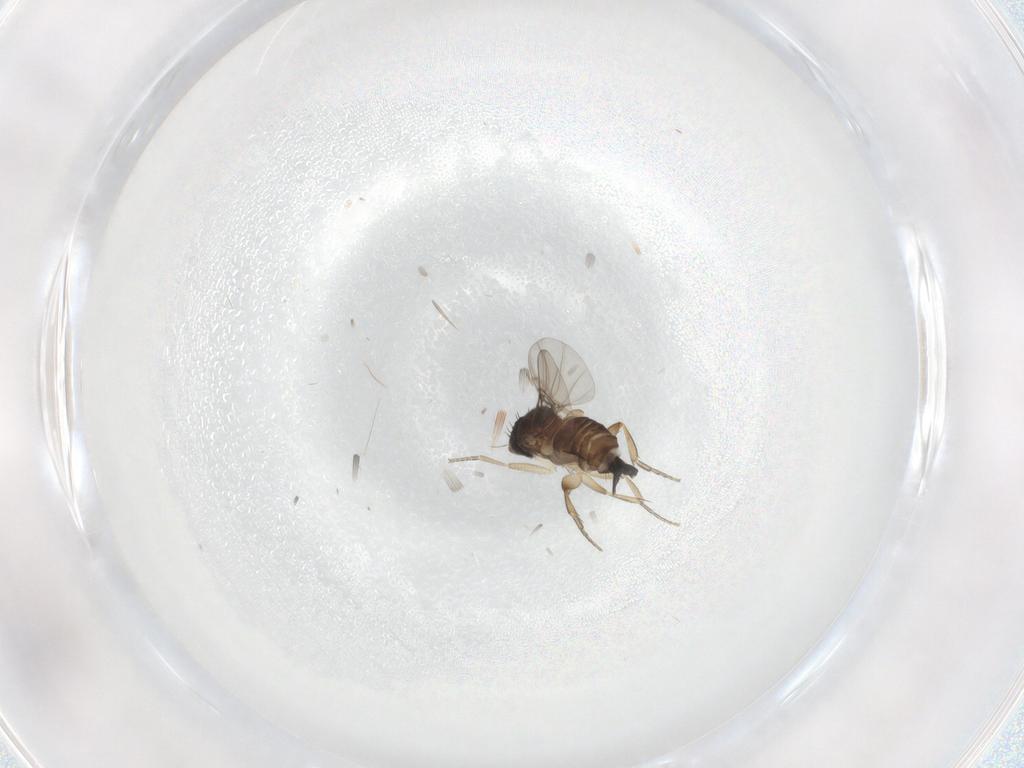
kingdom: Animalia
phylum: Arthropoda
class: Insecta
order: Diptera
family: Phoridae
